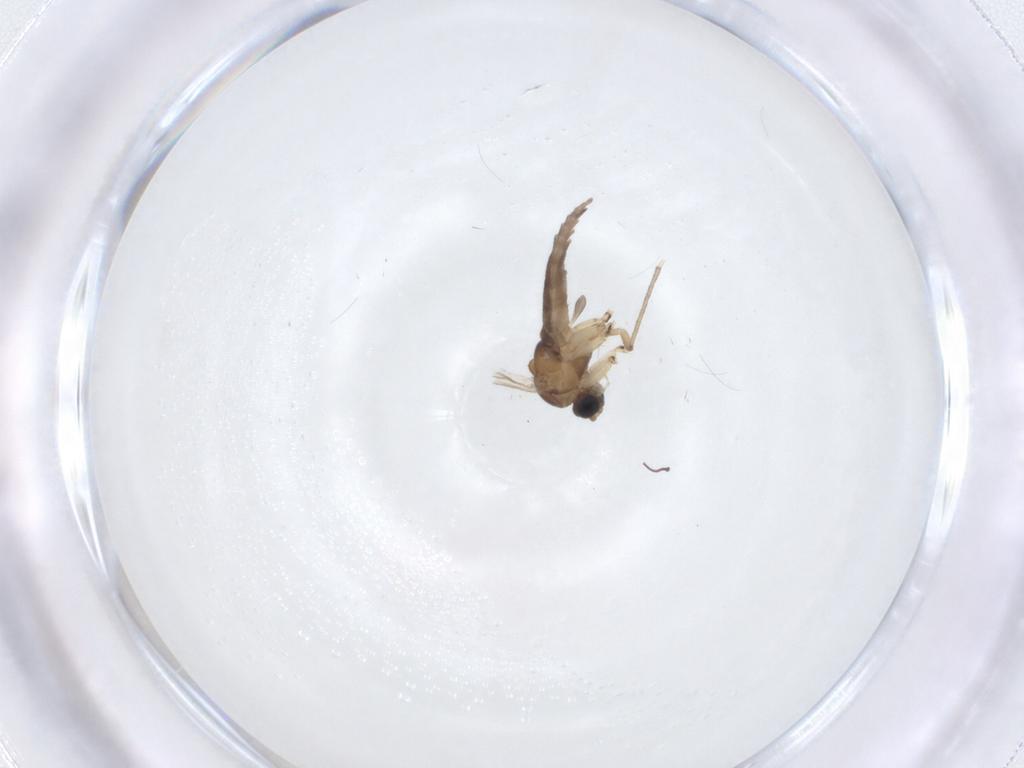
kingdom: Animalia
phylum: Arthropoda
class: Insecta
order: Diptera
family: Sciaridae
